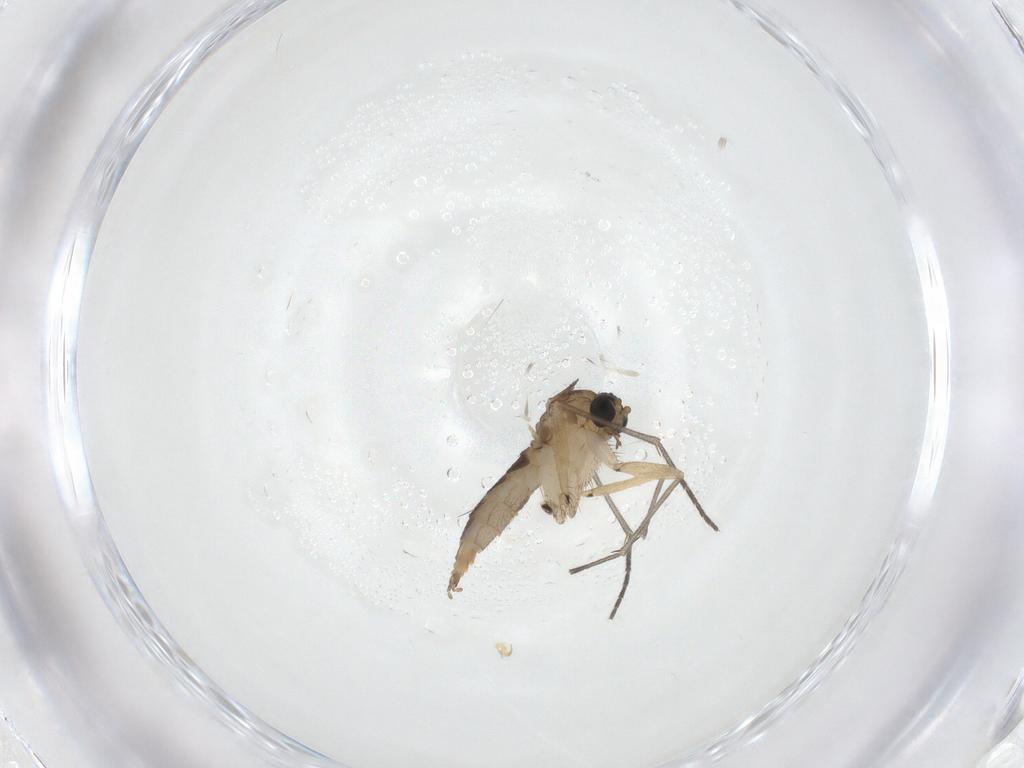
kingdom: Animalia
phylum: Arthropoda
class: Insecta
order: Diptera
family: Sciaridae
